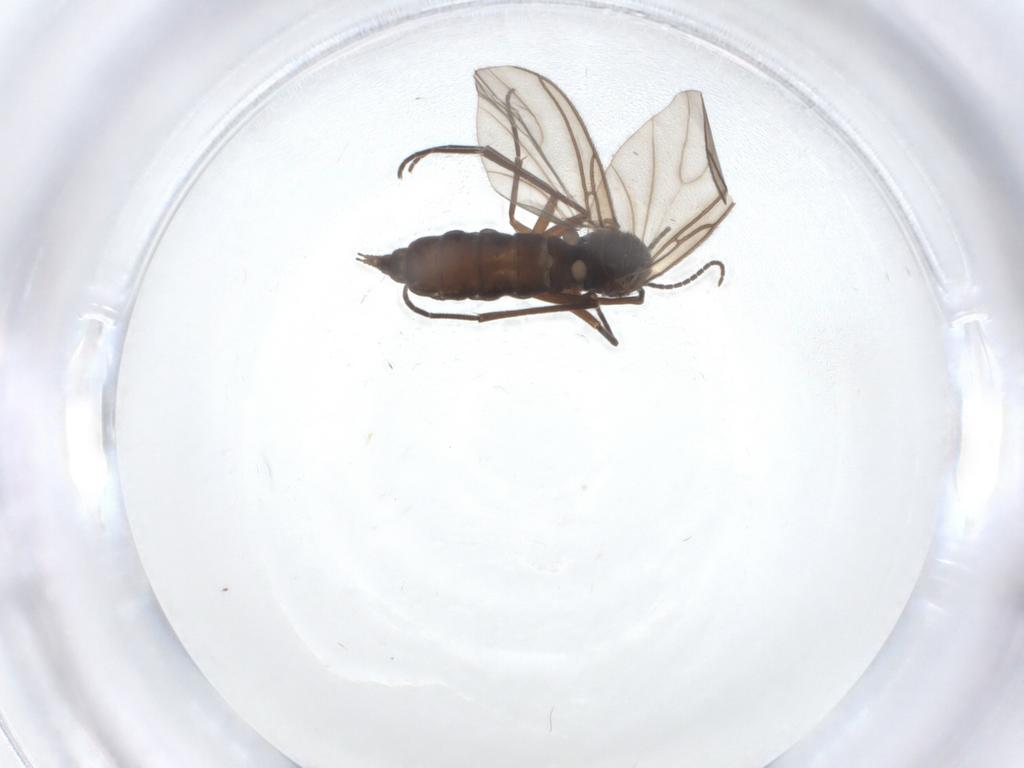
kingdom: Animalia
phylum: Arthropoda
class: Insecta
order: Diptera
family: Sciaridae
